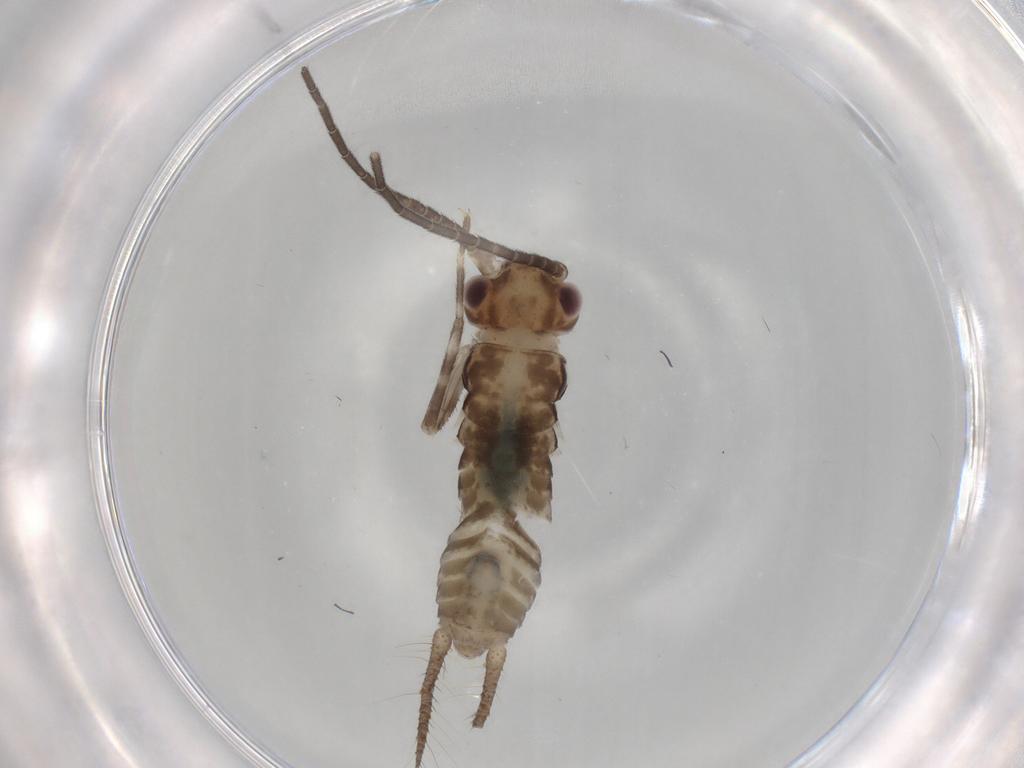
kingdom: Animalia
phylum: Arthropoda
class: Insecta
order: Orthoptera
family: Gryllidae
